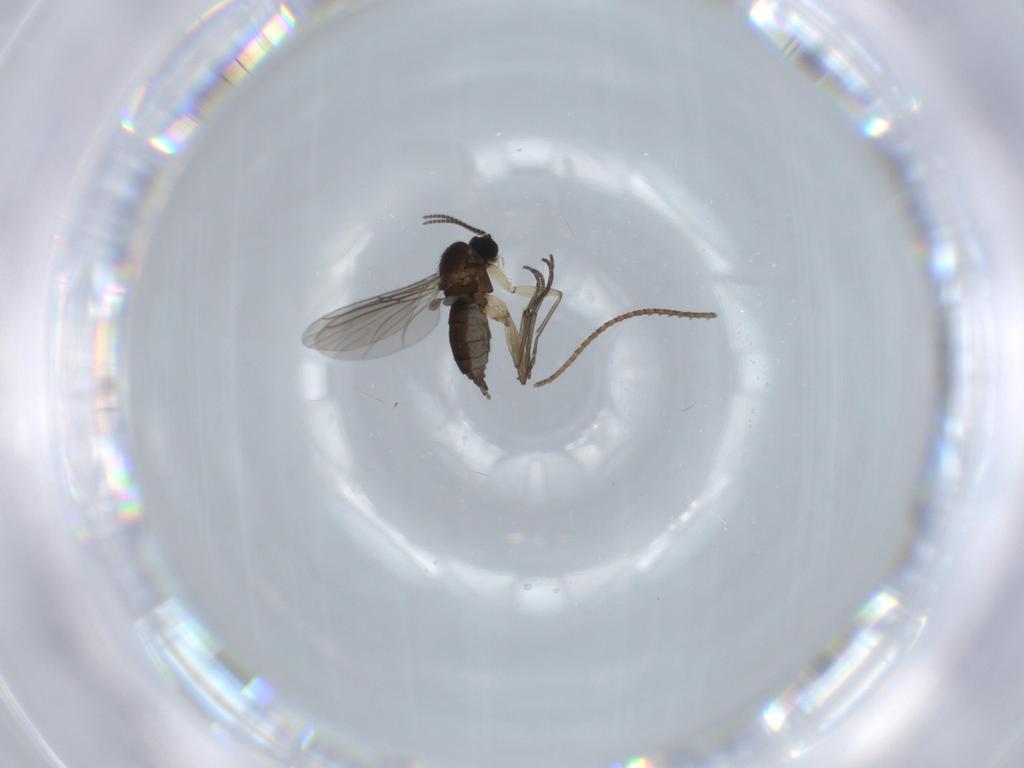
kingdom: Animalia
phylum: Arthropoda
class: Insecta
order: Diptera
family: Sciaridae
